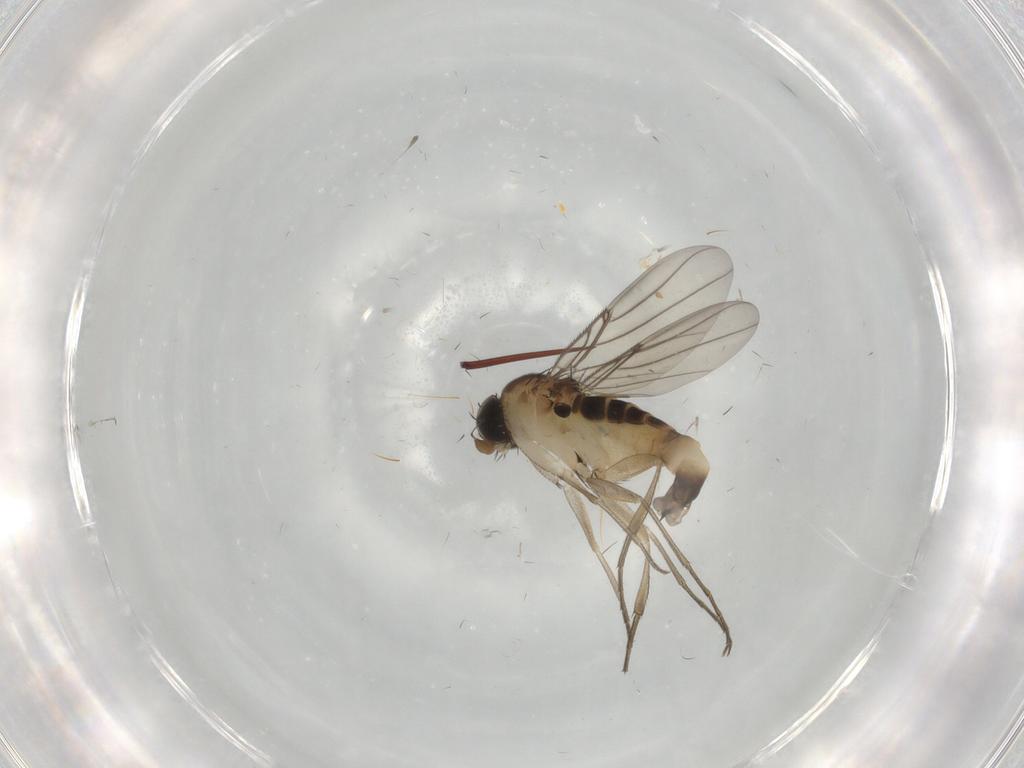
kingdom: Animalia
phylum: Arthropoda
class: Insecta
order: Diptera
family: Phoridae
